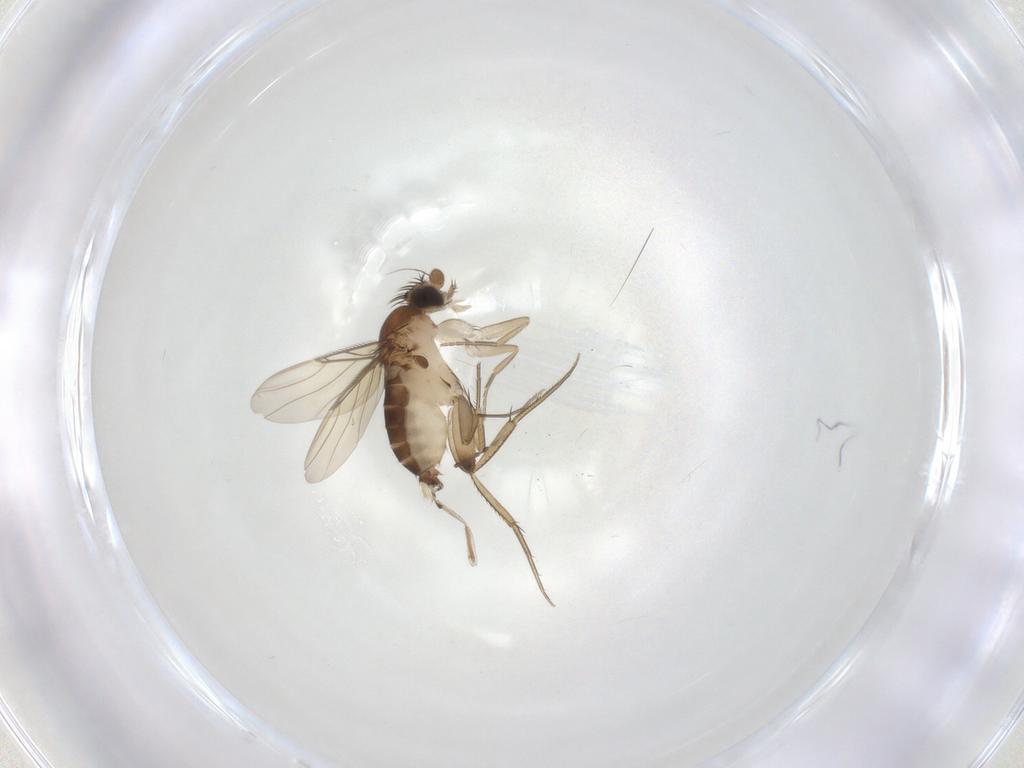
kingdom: Animalia
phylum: Arthropoda
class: Insecta
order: Diptera
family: Phoridae
